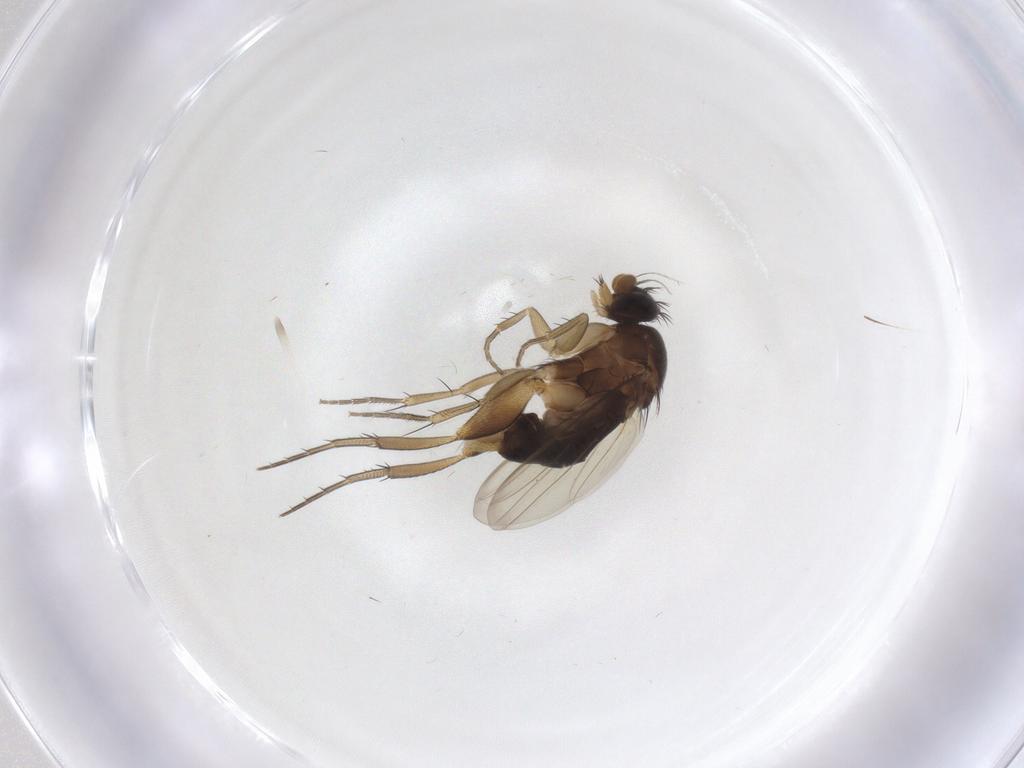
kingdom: Animalia
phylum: Arthropoda
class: Insecta
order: Diptera
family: Phoridae
